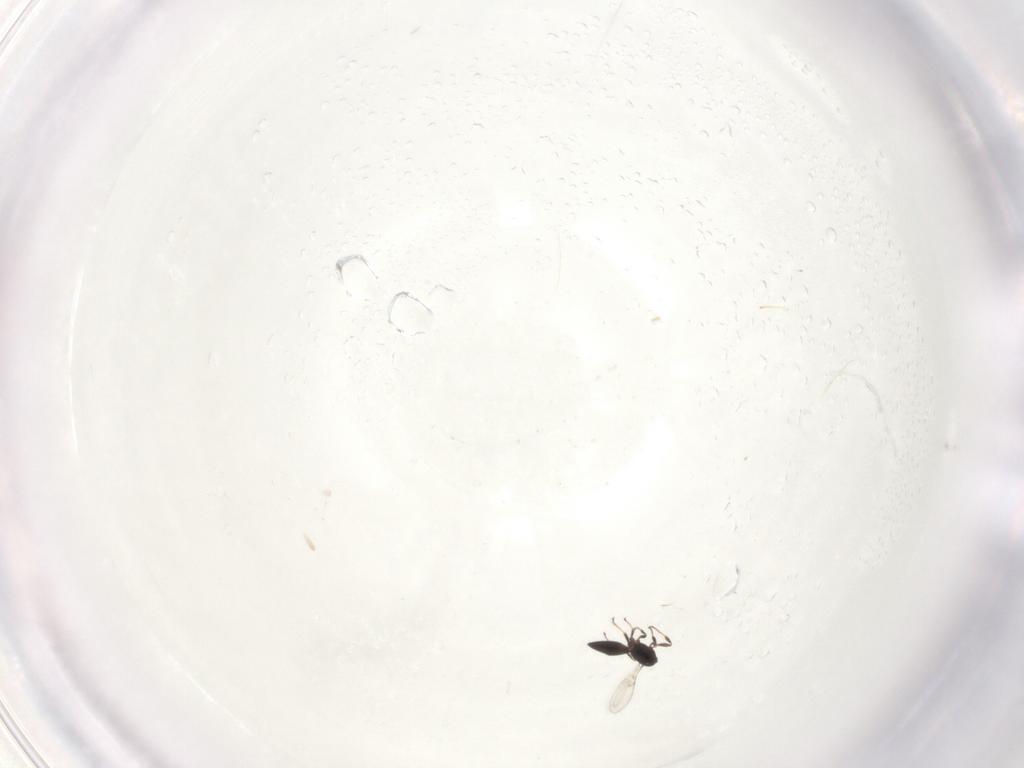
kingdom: Animalia
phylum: Arthropoda
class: Insecta
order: Hymenoptera
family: Scelionidae
